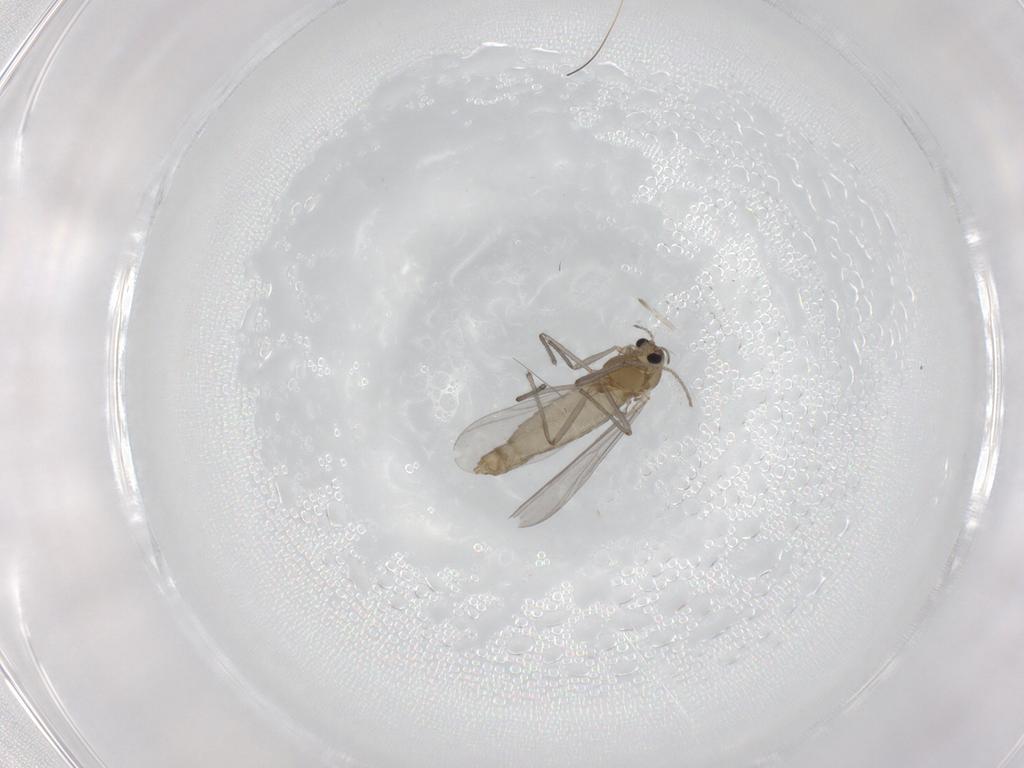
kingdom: Animalia
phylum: Arthropoda
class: Insecta
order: Diptera
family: Chironomidae
